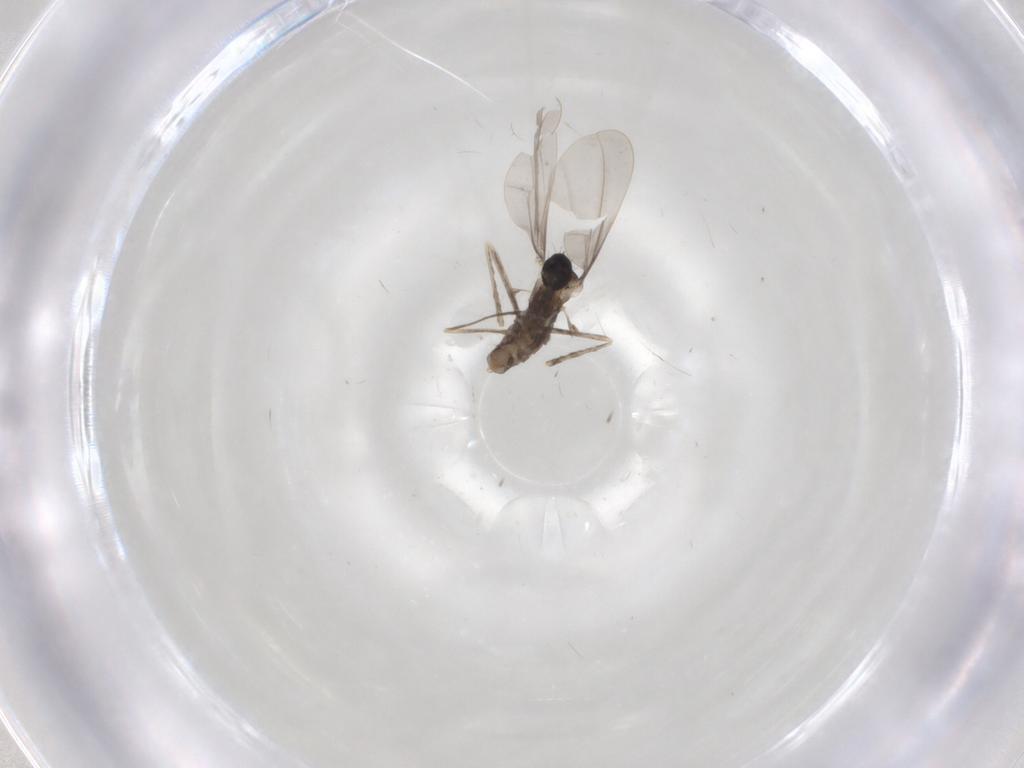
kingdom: Animalia
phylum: Arthropoda
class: Insecta
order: Diptera
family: Cecidomyiidae
